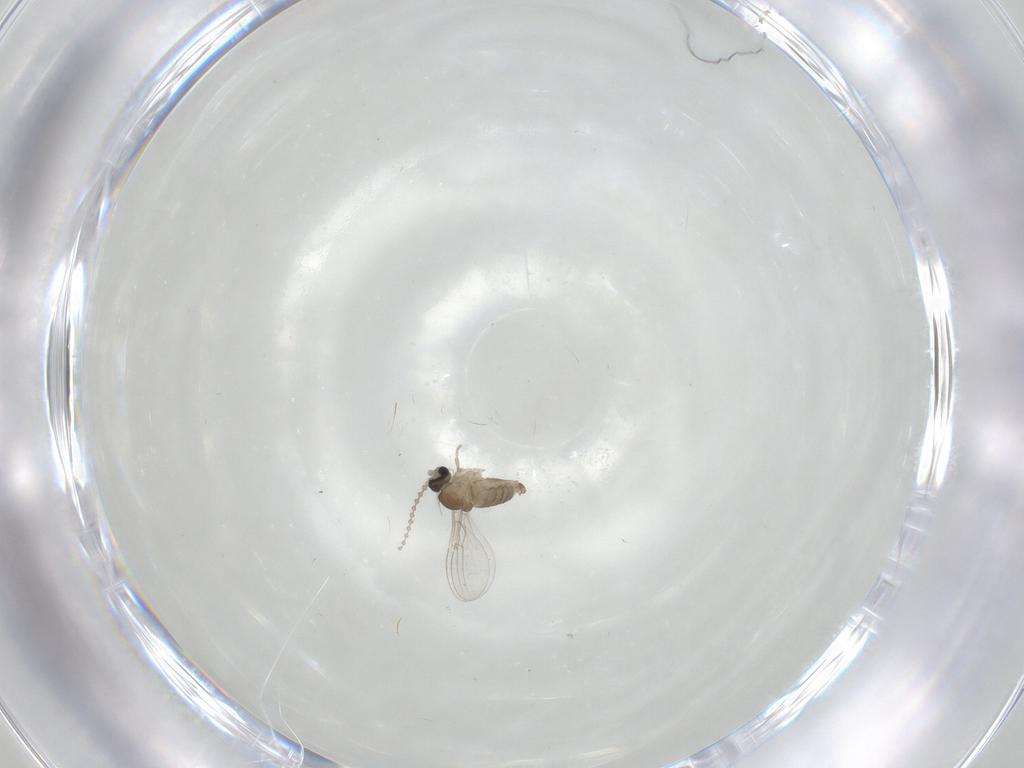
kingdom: Animalia
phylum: Arthropoda
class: Insecta
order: Diptera
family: Cecidomyiidae
